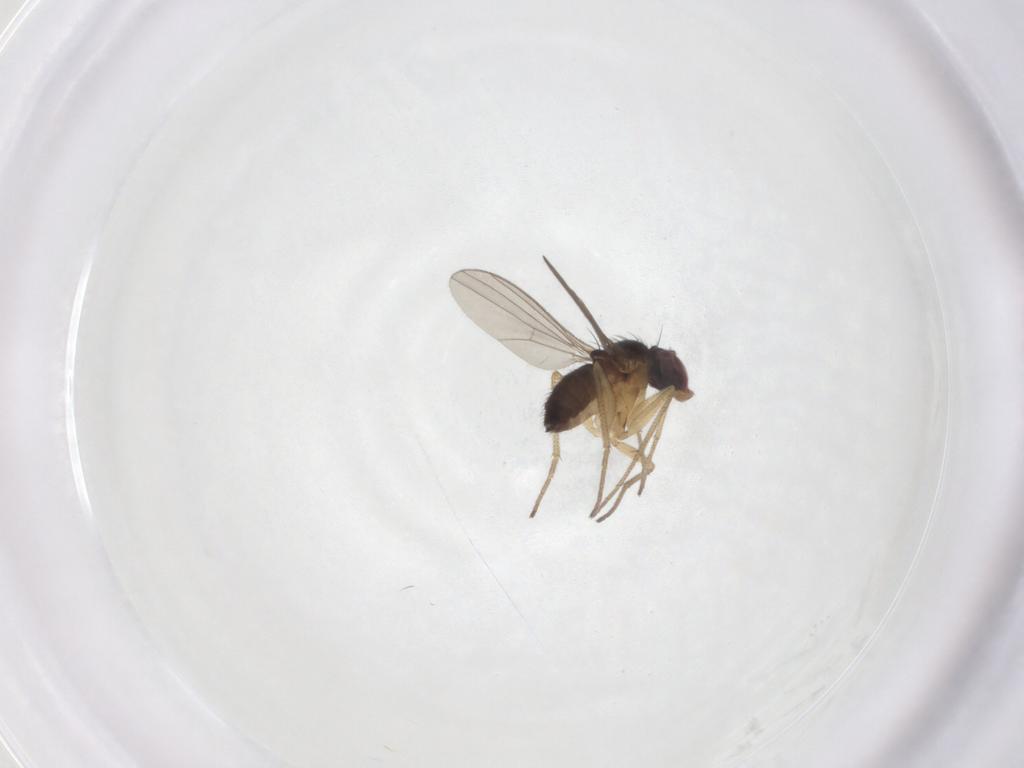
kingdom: Animalia
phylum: Arthropoda
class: Insecta
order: Diptera
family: Dolichopodidae
